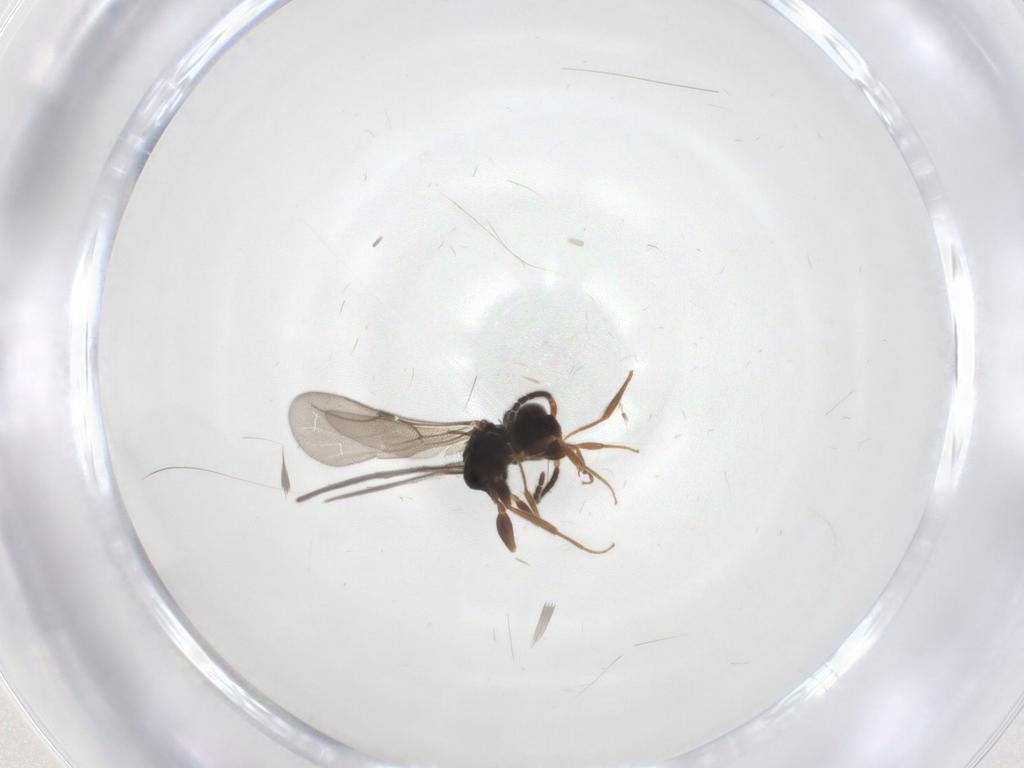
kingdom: Animalia
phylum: Arthropoda
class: Insecta
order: Hymenoptera
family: Bethylidae
